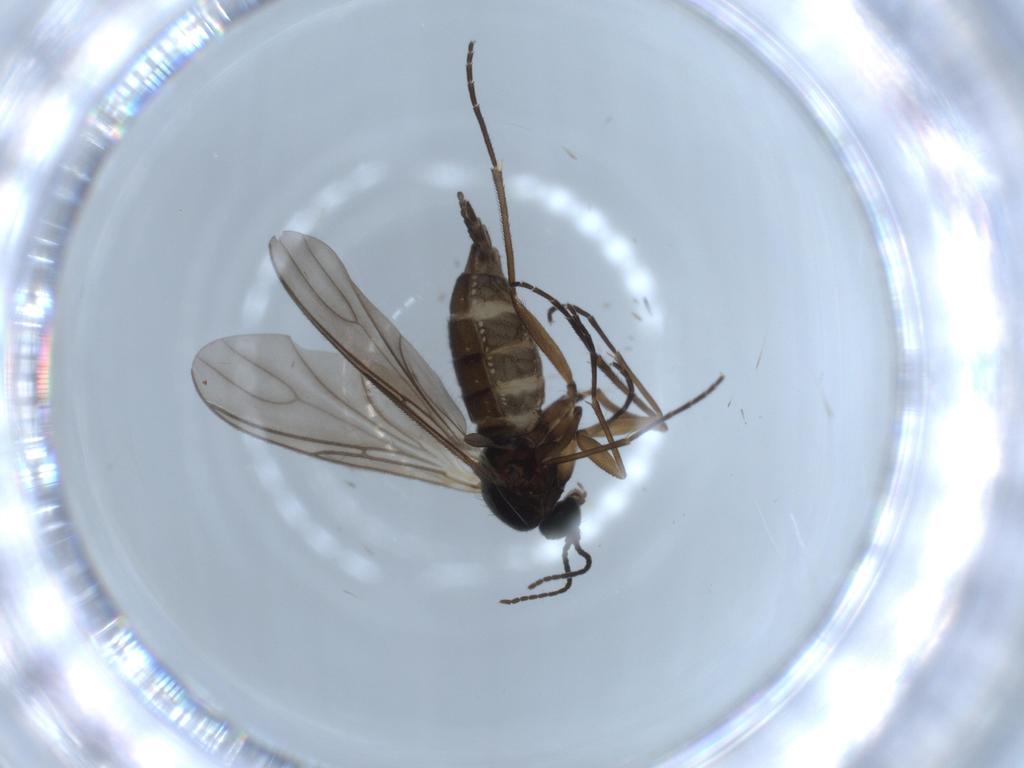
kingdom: Animalia
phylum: Arthropoda
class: Insecta
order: Diptera
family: Sciaridae
